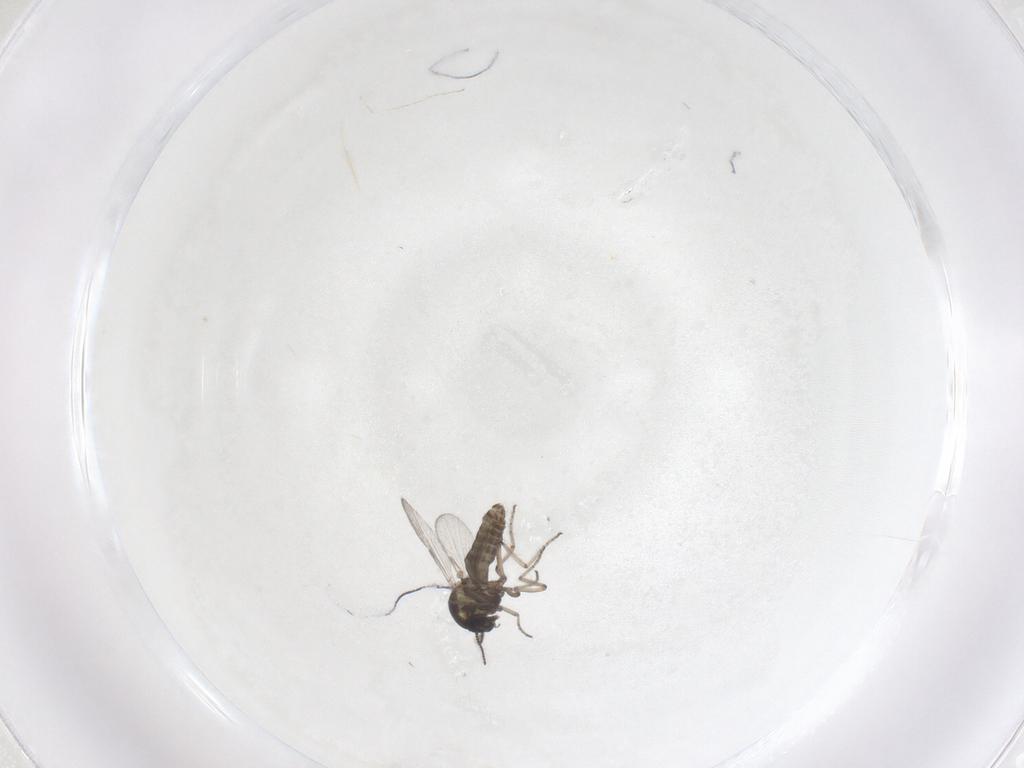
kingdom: Animalia
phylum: Arthropoda
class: Insecta
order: Diptera
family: Ceratopogonidae
